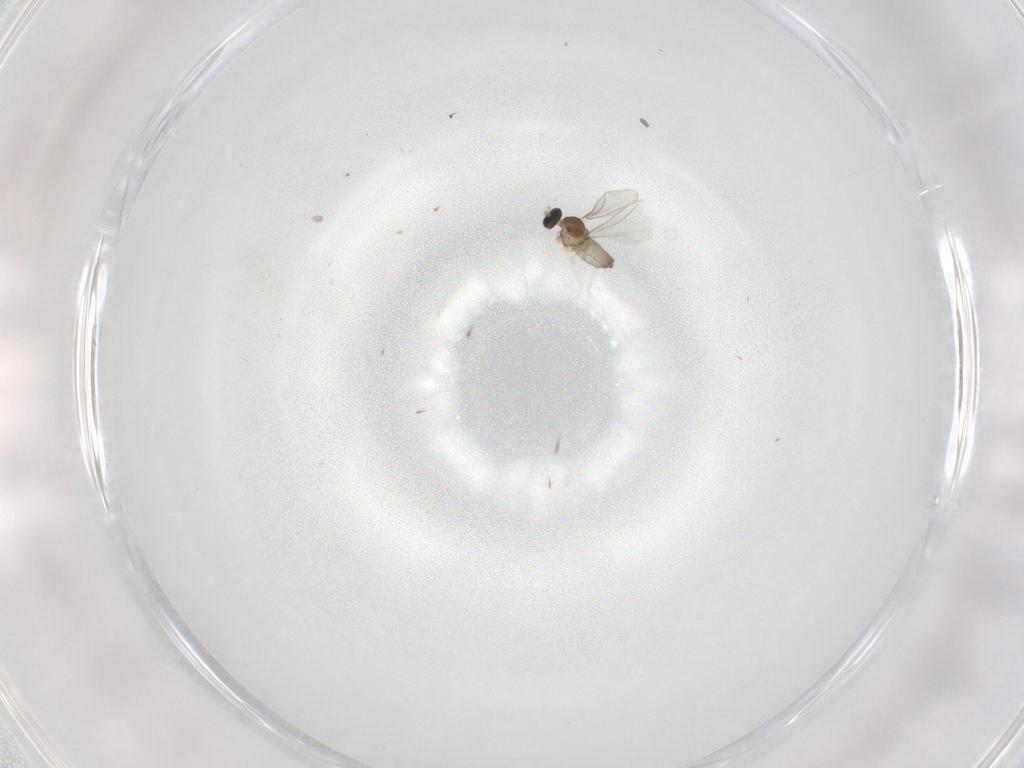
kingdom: Animalia
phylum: Arthropoda
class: Insecta
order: Diptera
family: Cecidomyiidae
